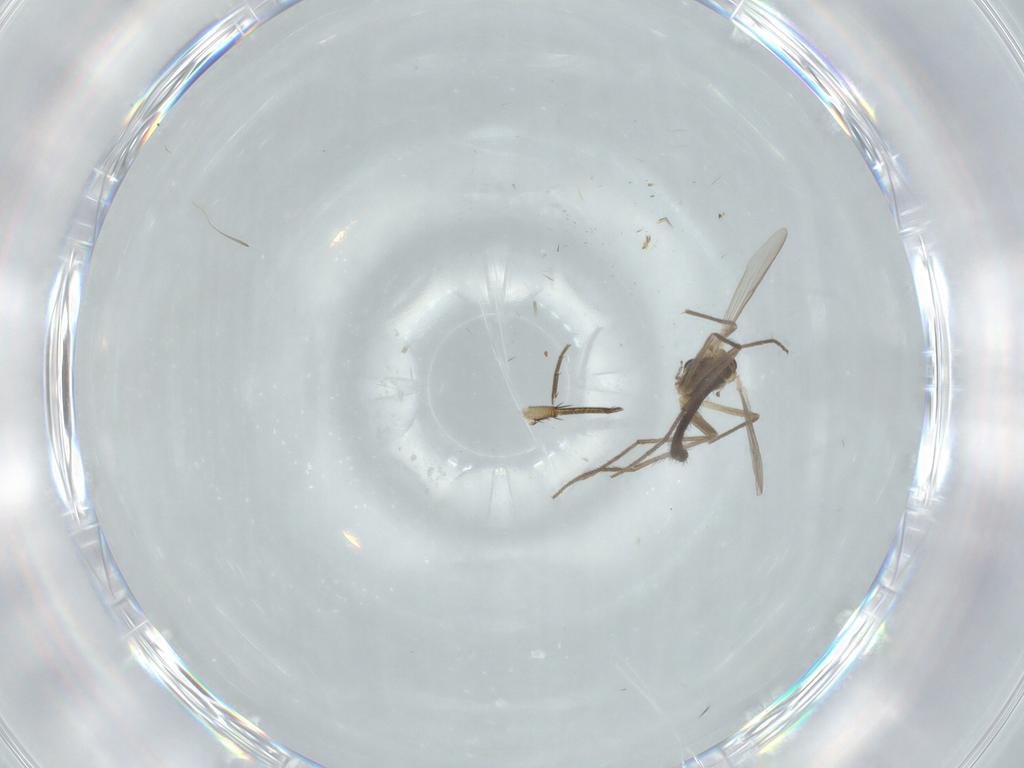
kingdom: Animalia
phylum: Arthropoda
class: Insecta
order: Diptera
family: Chironomidae
